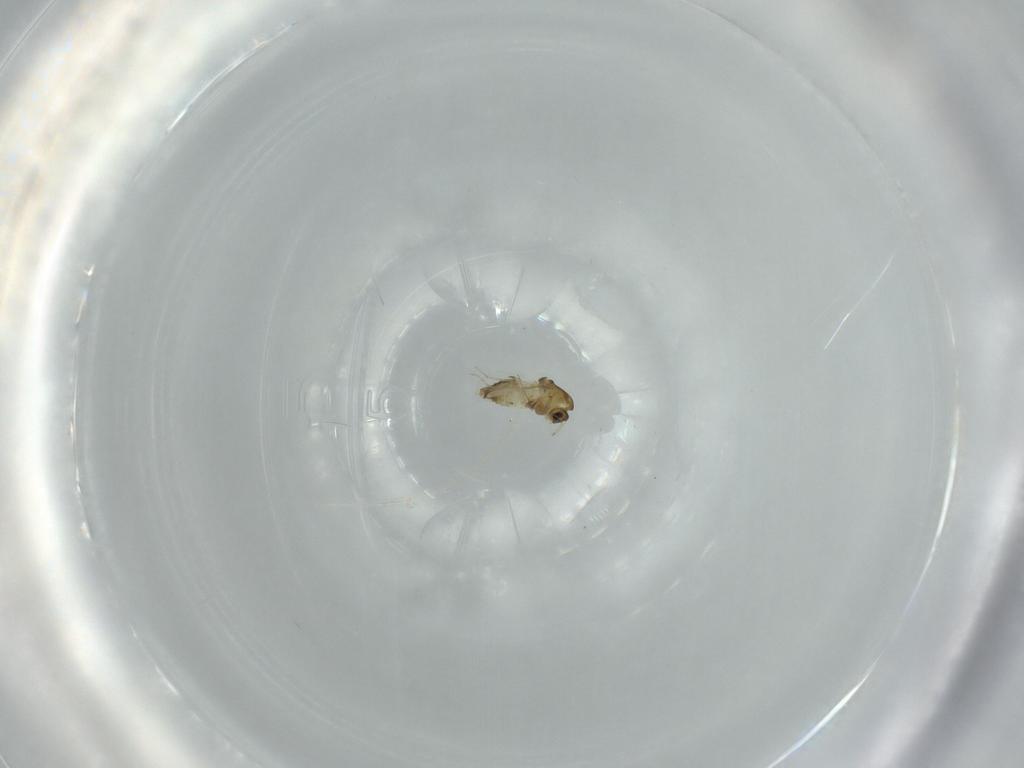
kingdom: Animalia
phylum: Arthropoda
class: Insecta
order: Diptera
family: Chironomidae
